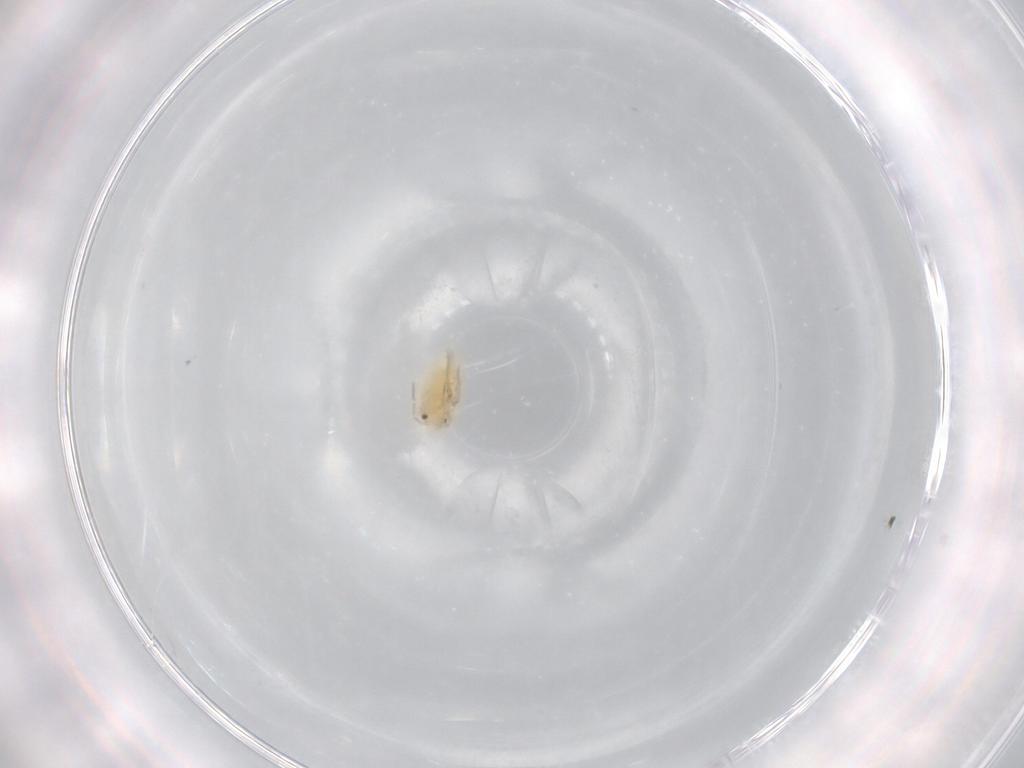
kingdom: Animalia
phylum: Arthropoda
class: Insecta
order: Hemiptera
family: Miridae
